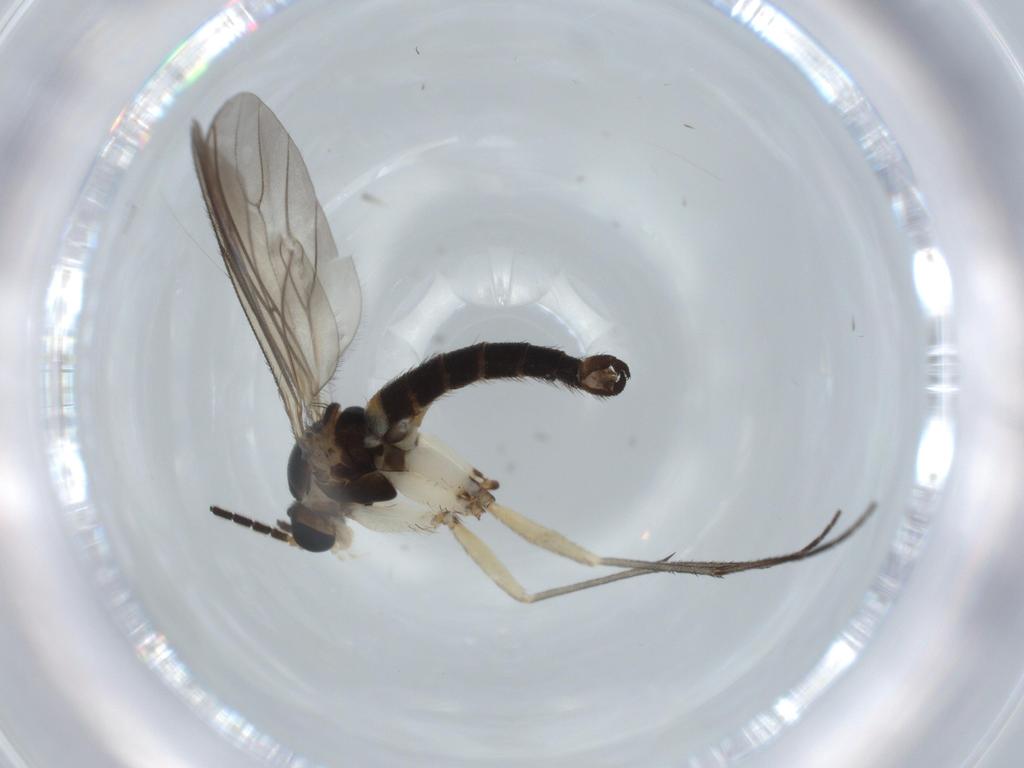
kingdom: Animalia
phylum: Arthropoda
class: Insecta
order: Diptera
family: Sciaridae
